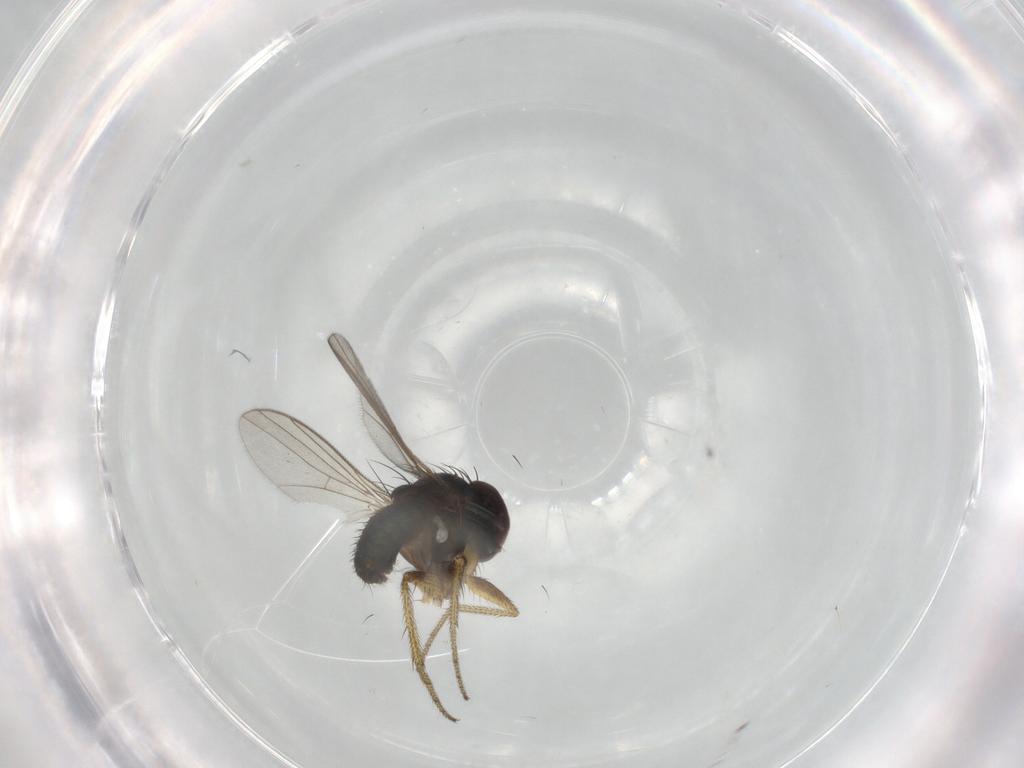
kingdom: Animalia
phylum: Arthropoda
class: Insecta
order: Diptera
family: Dolichopodidae
